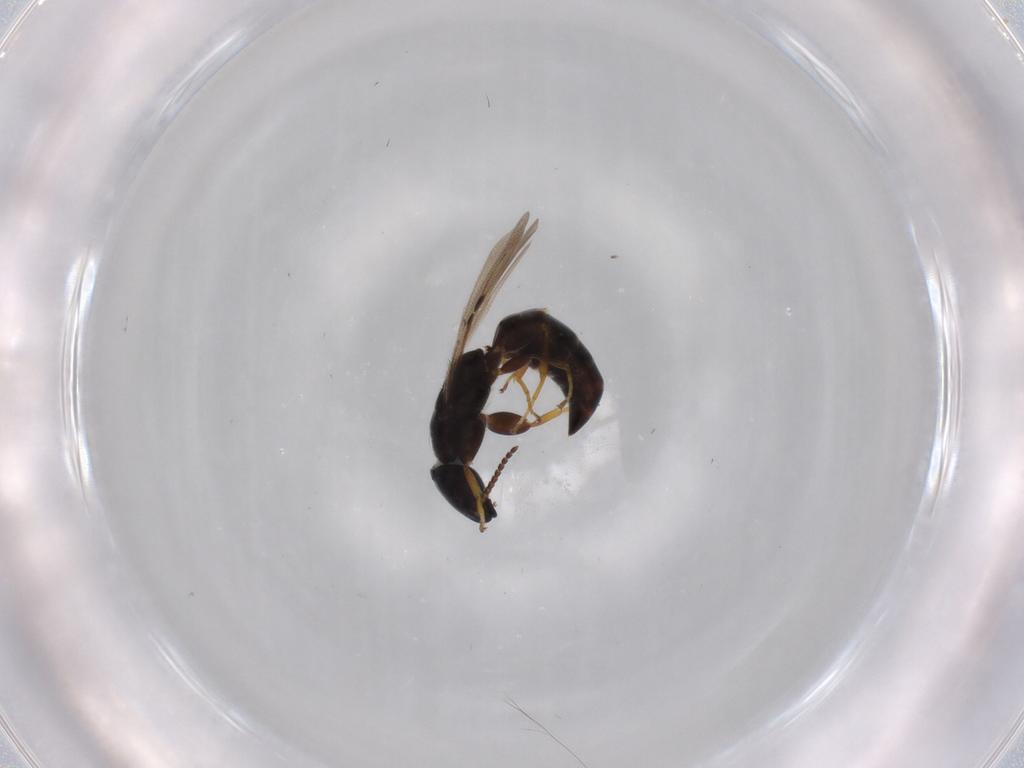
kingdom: Animalia
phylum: Arthropoda
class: Insecta
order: Hymenoptera
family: Bethylidae
